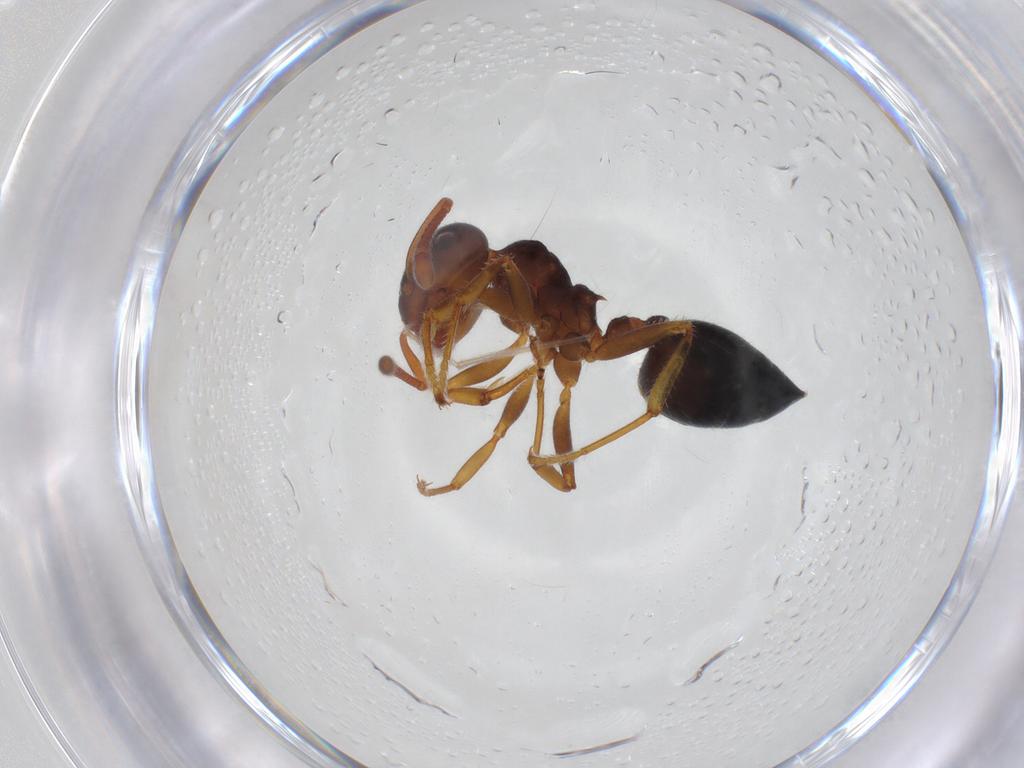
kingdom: Animalia
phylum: Arthropoda
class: Insecta
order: Hymenoptera
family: Formicidae
